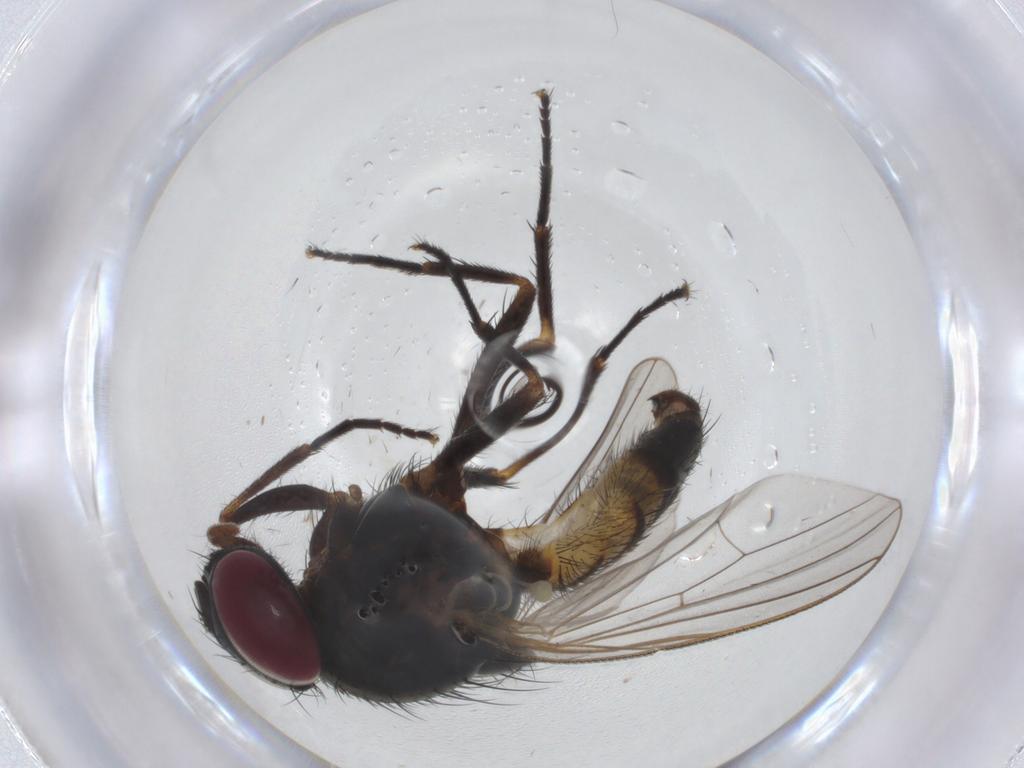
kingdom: Animalia
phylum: Arthropoda
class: Insecta
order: Diptera
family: Fannia
